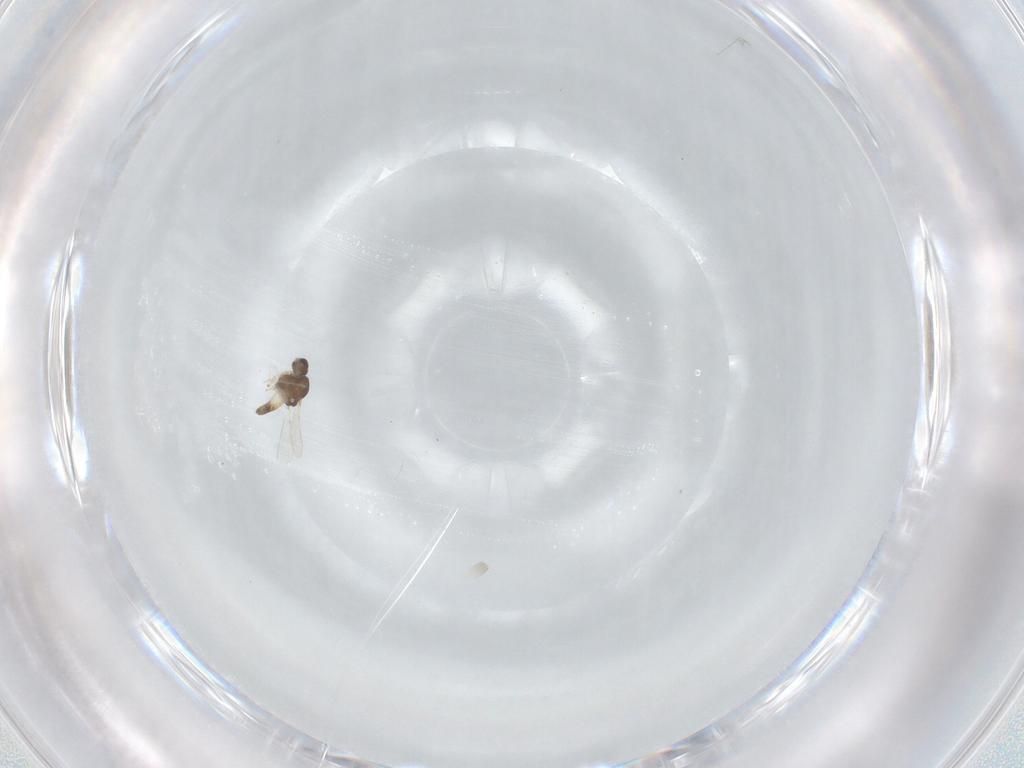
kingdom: Animalia
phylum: Arthropoda
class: Insecta
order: Diptera
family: Chironomidae
